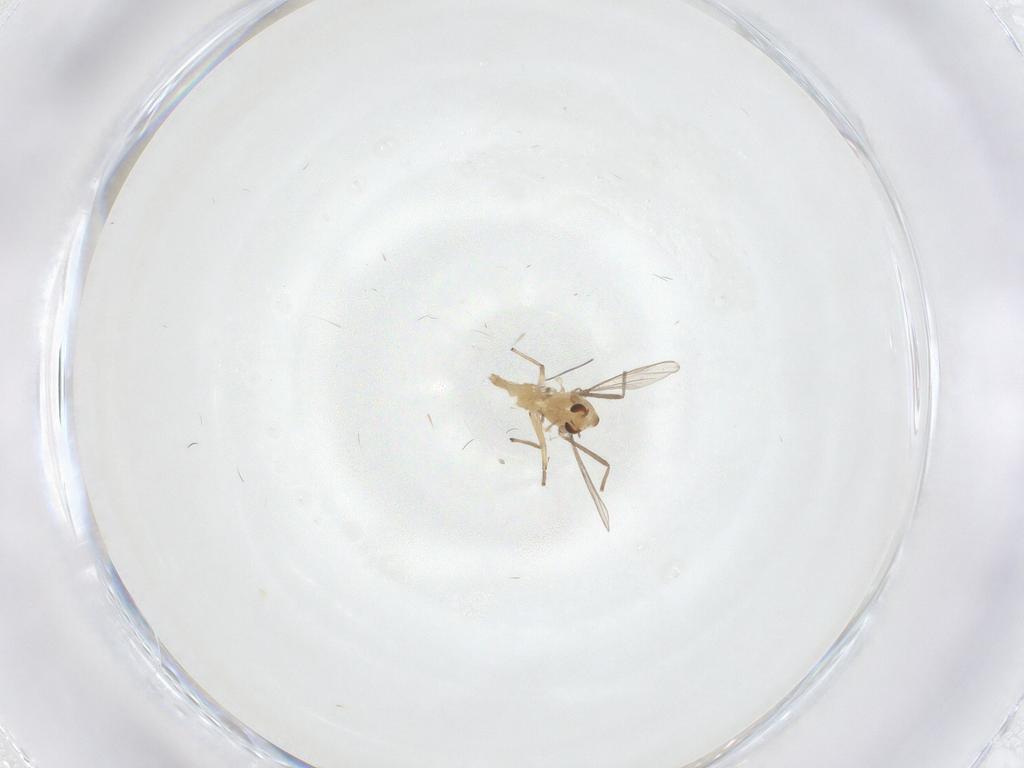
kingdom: Animalia
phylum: Arthropoda
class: Insecta
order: Diptera
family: Chironomidae
